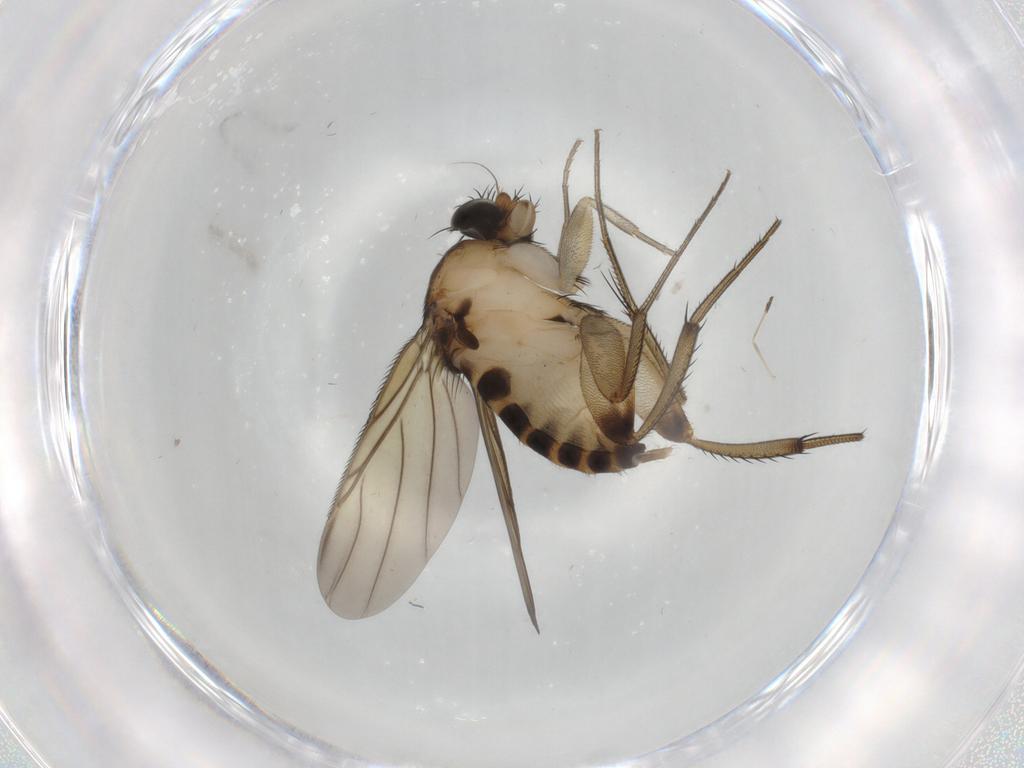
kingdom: Animalia
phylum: Arthropoda
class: Insecta
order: Diptera
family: Phoridae
